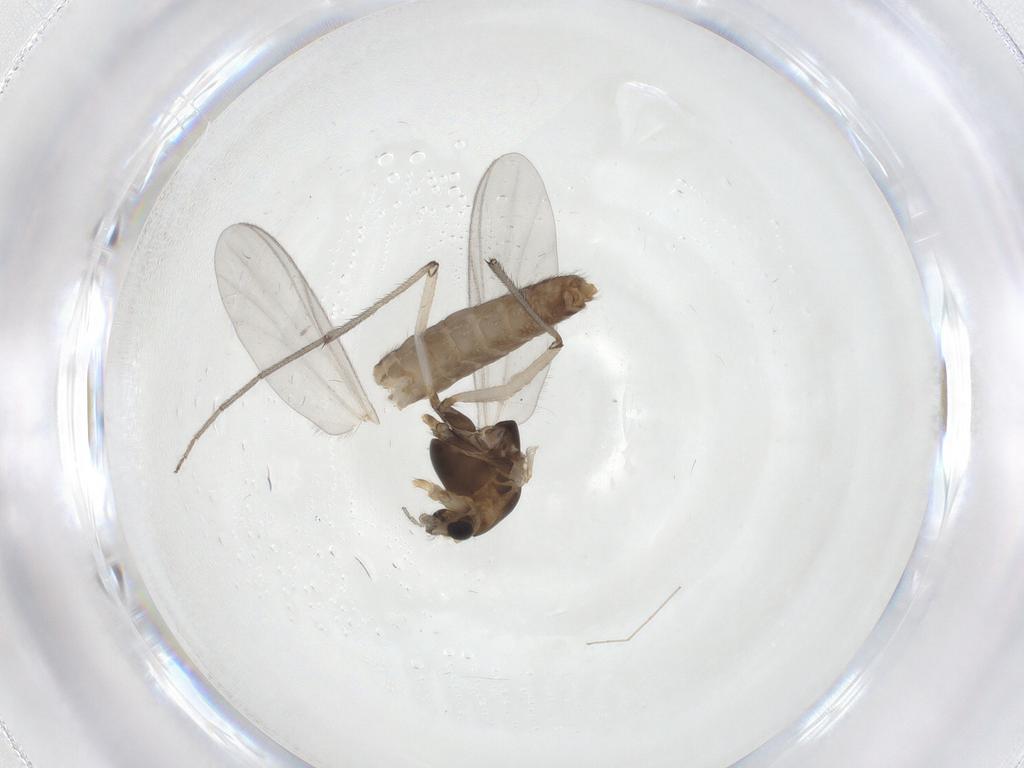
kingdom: Animalia
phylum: Arthropoda
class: Insecta
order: Diptera
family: Chironomidae
